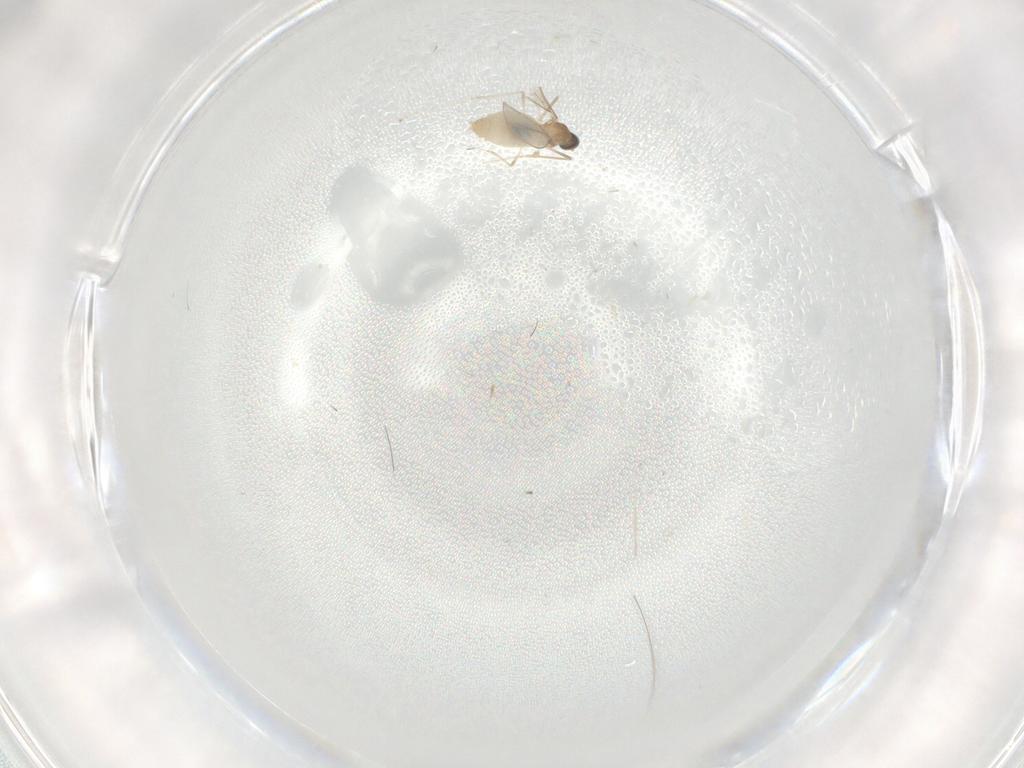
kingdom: Animalia
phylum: Arthropoda
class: Insecta
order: Diptera
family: Cecidomyiidae
